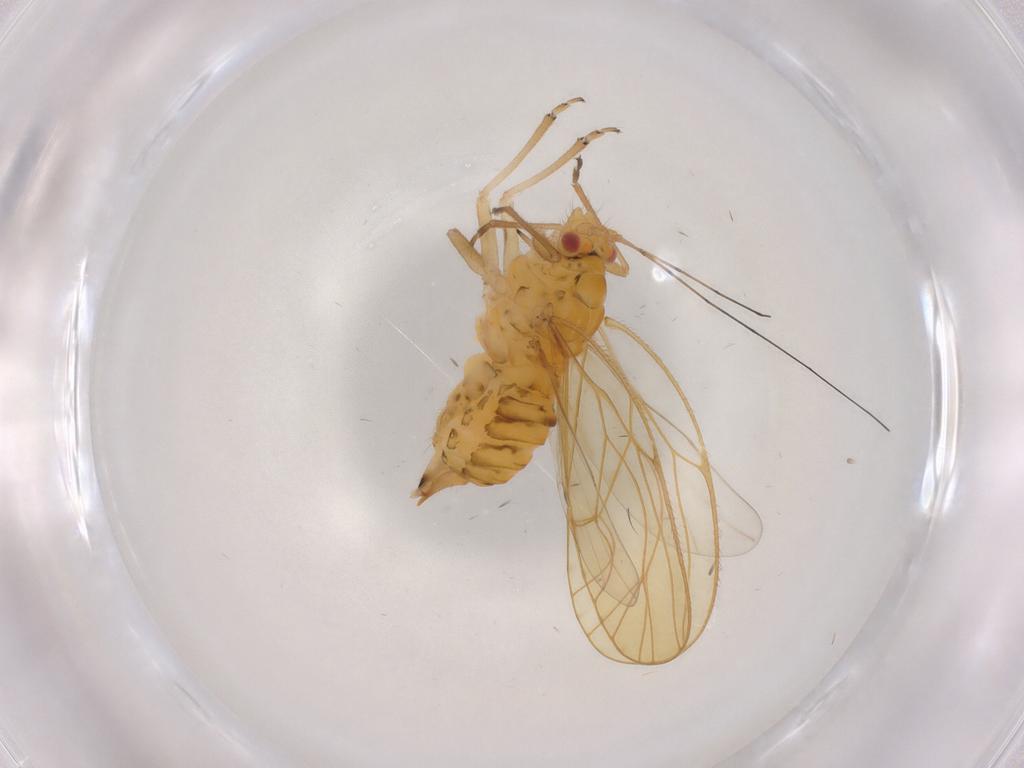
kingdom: Animalia
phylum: Arthropoda
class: Insecta
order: Hemiptera
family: Psyllidae
